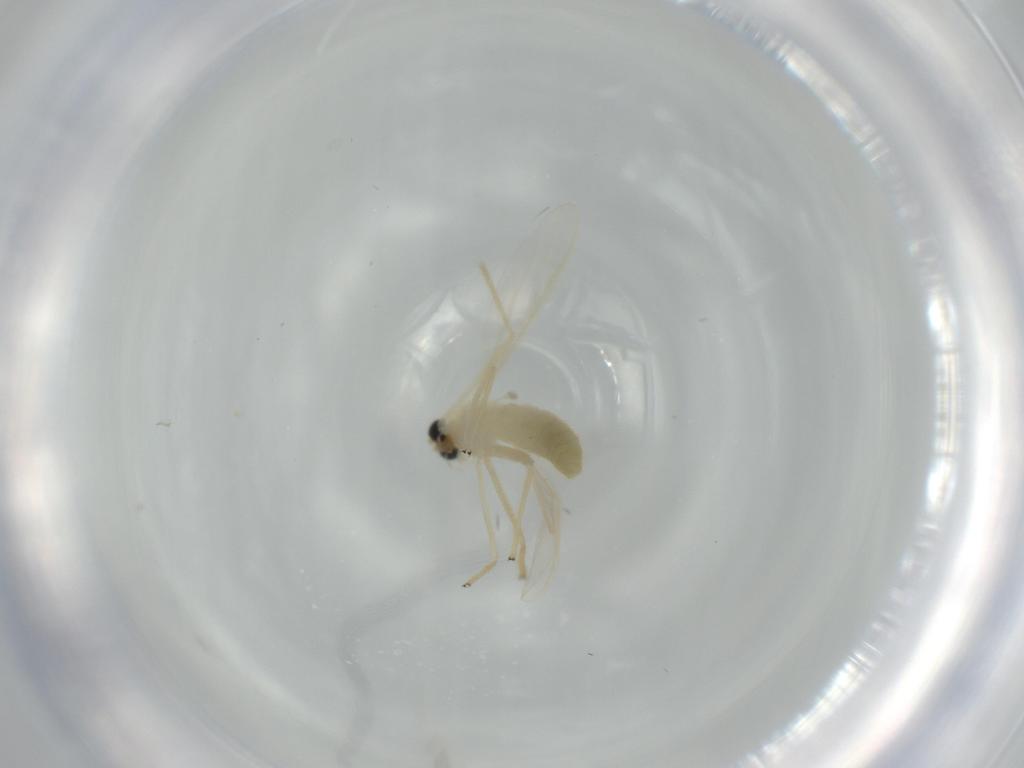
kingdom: Animalia
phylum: Arthropoda
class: Insecta
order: Diptera
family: Chironomidae
